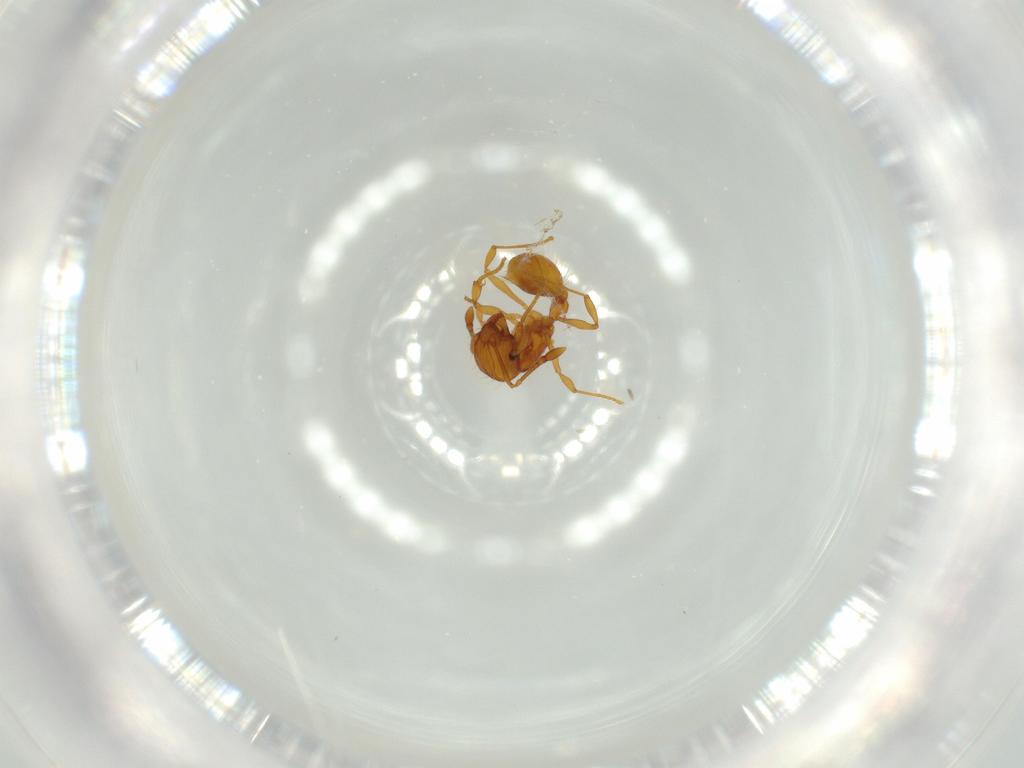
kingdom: Animalia
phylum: Arthropoda
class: Insecta
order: Hymenoptera
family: Formicidae
